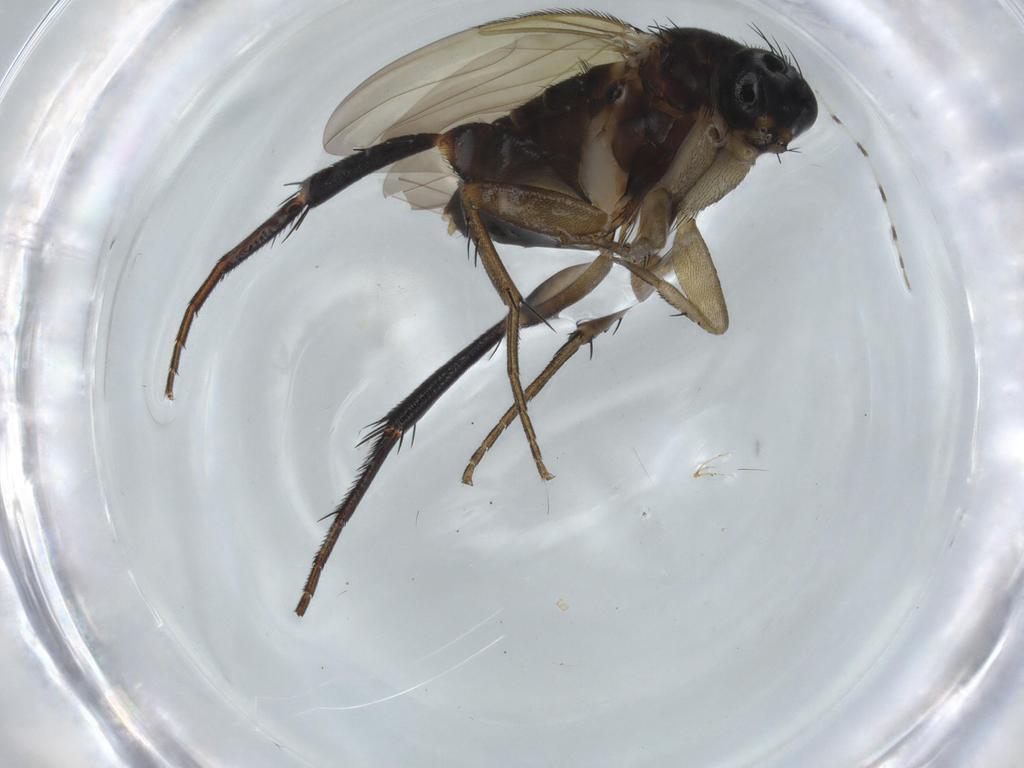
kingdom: Animalia
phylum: Arthropoda
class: Insecta
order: Diptera
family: Phoridae
